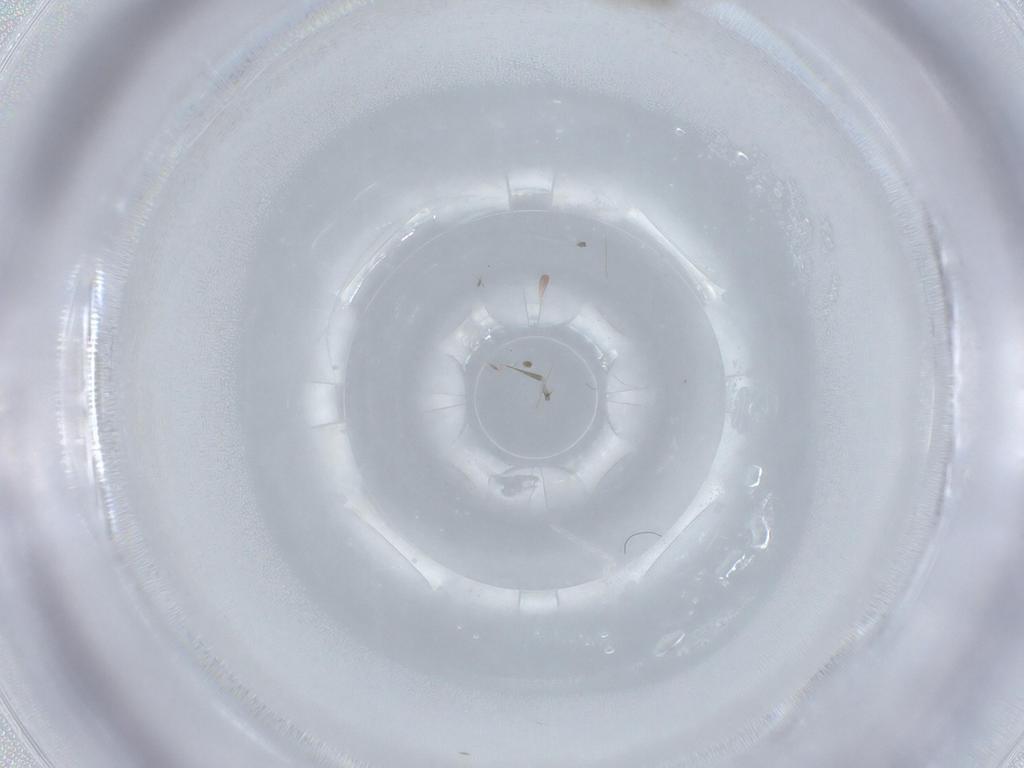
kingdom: Animalia
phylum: Arthropoda
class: Insecta
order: Diptera
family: Cecidomyiidae
